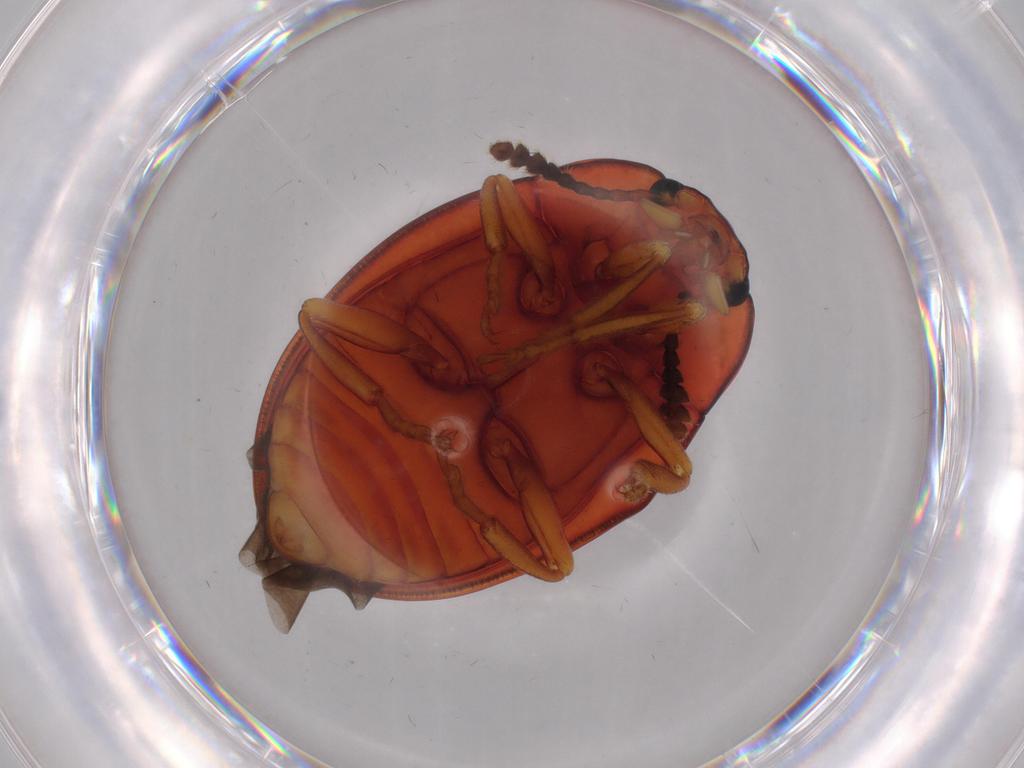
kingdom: Animalia
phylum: Arthropoda
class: Insecta
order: Coleoptera
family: Erotylidae
